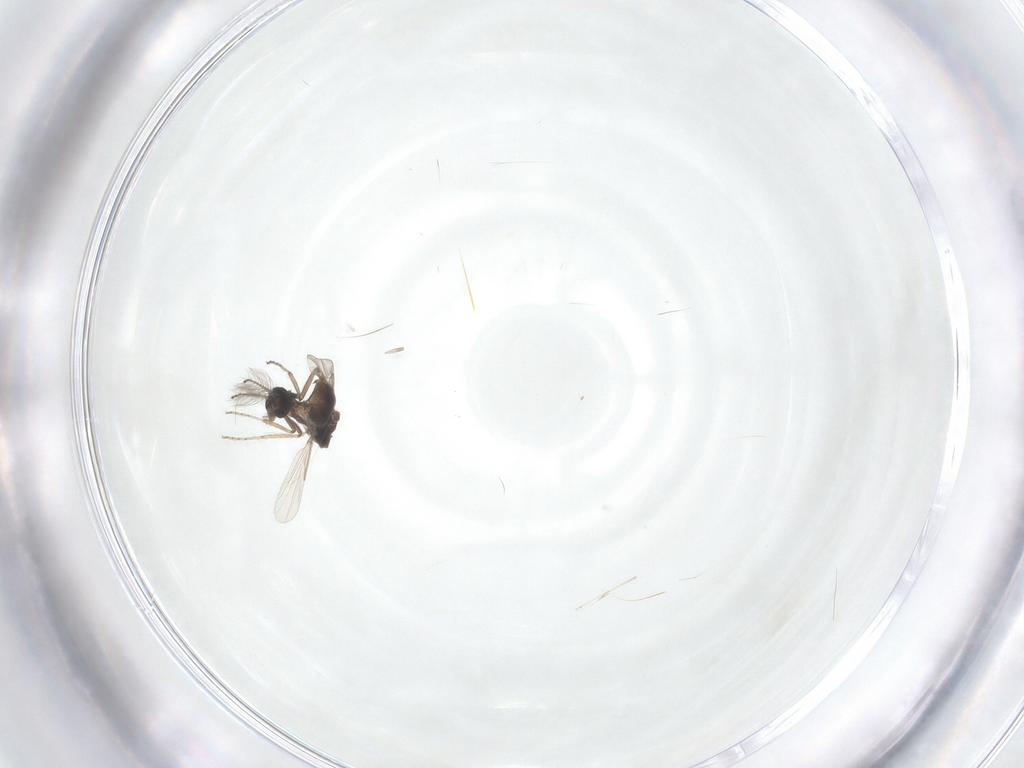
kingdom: Animalia
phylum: Arthropoda
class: Insecta
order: Diptera
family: Ceratopogonidae
